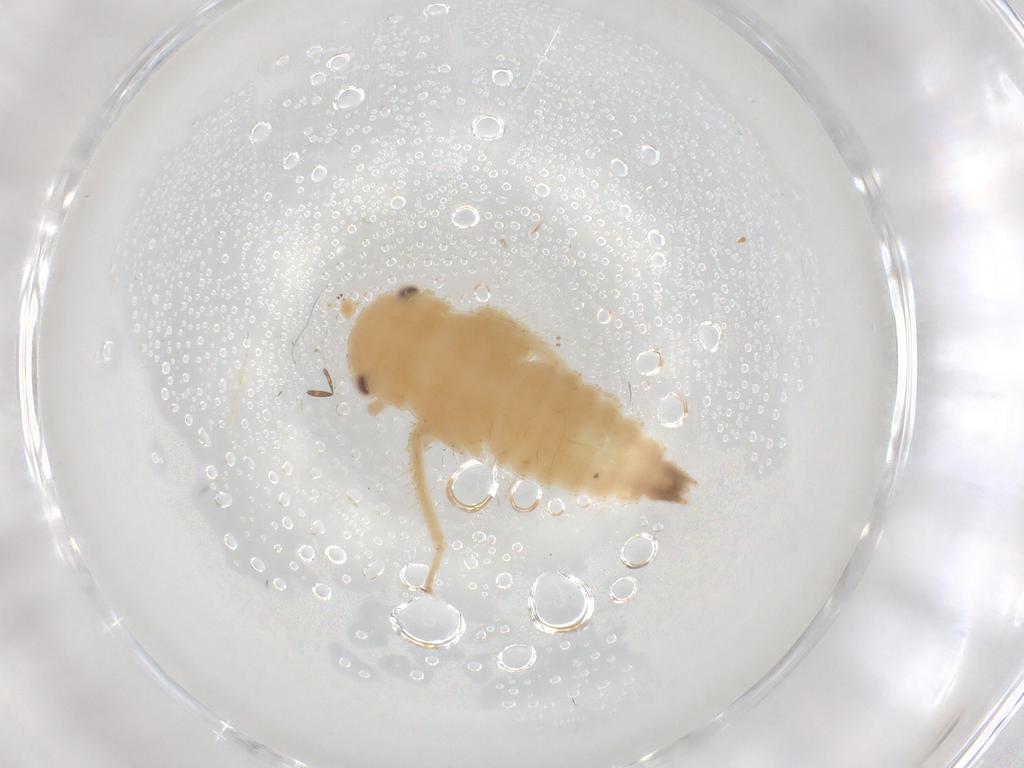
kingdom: Animalia
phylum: Arthropoda
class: Insecta
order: Hemiptera
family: Cicadellidae
